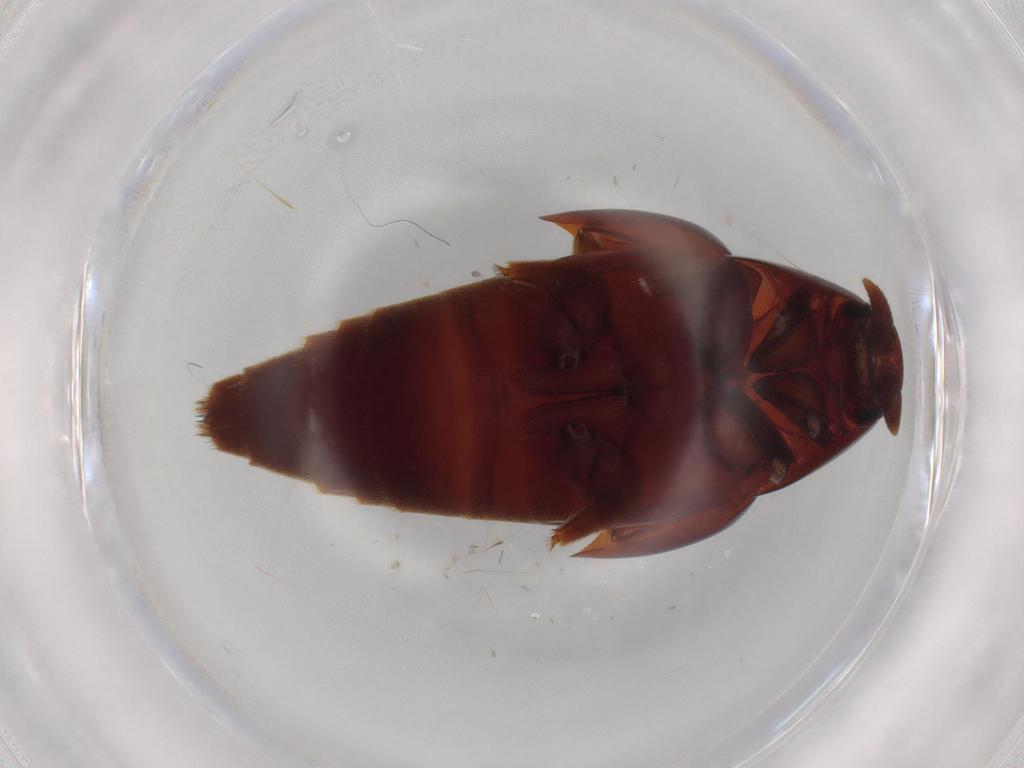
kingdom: Animalia
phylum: Arthropoda
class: Insecta
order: Coleoptera
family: Staphylinidae
